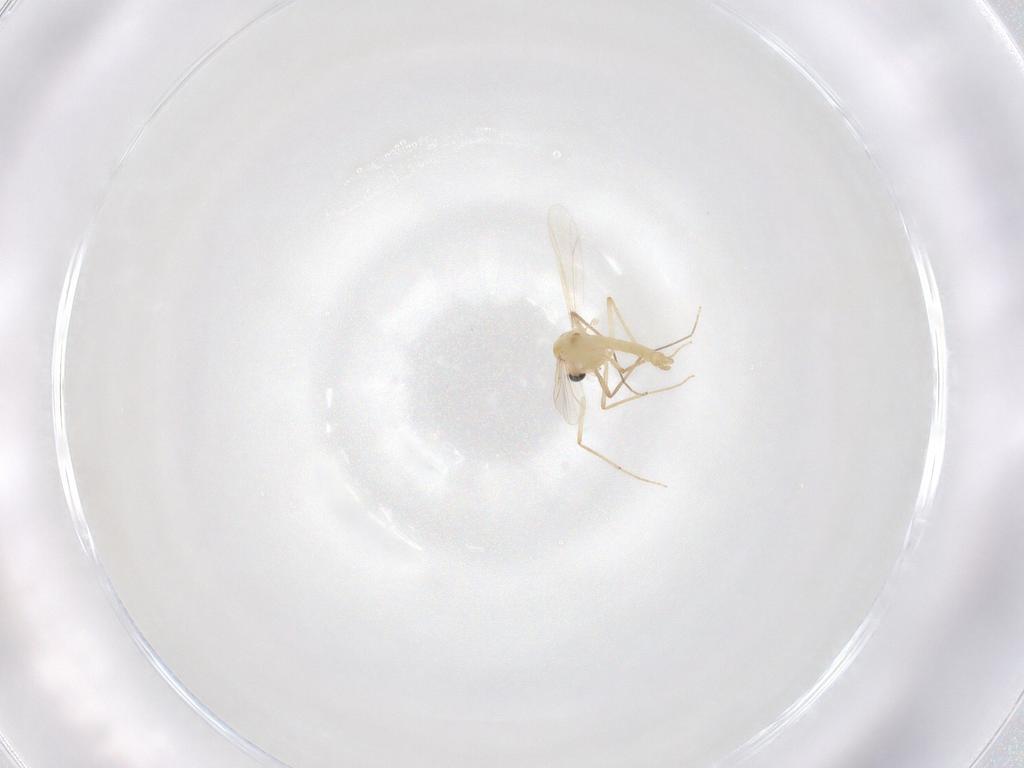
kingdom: Animalia
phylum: Arthropoda
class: Insecta
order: Diptera
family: Chironomidae
